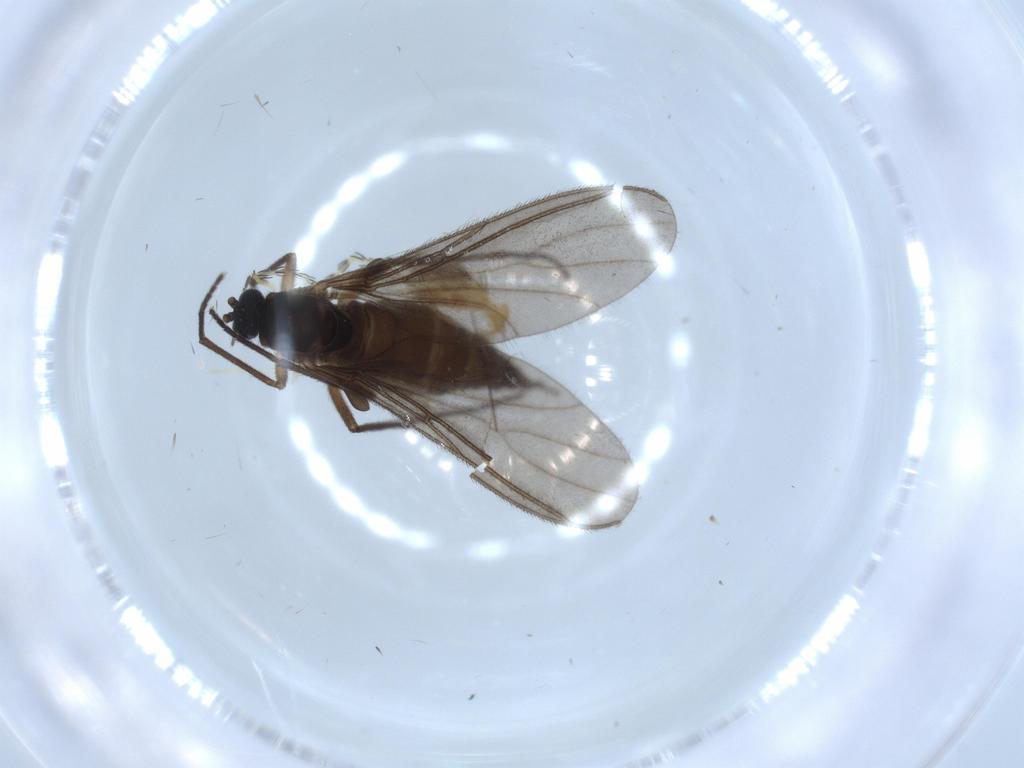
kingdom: Animalia
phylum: Arthropoda
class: Arachnida
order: Trombidiformes
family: Erythraeidae
